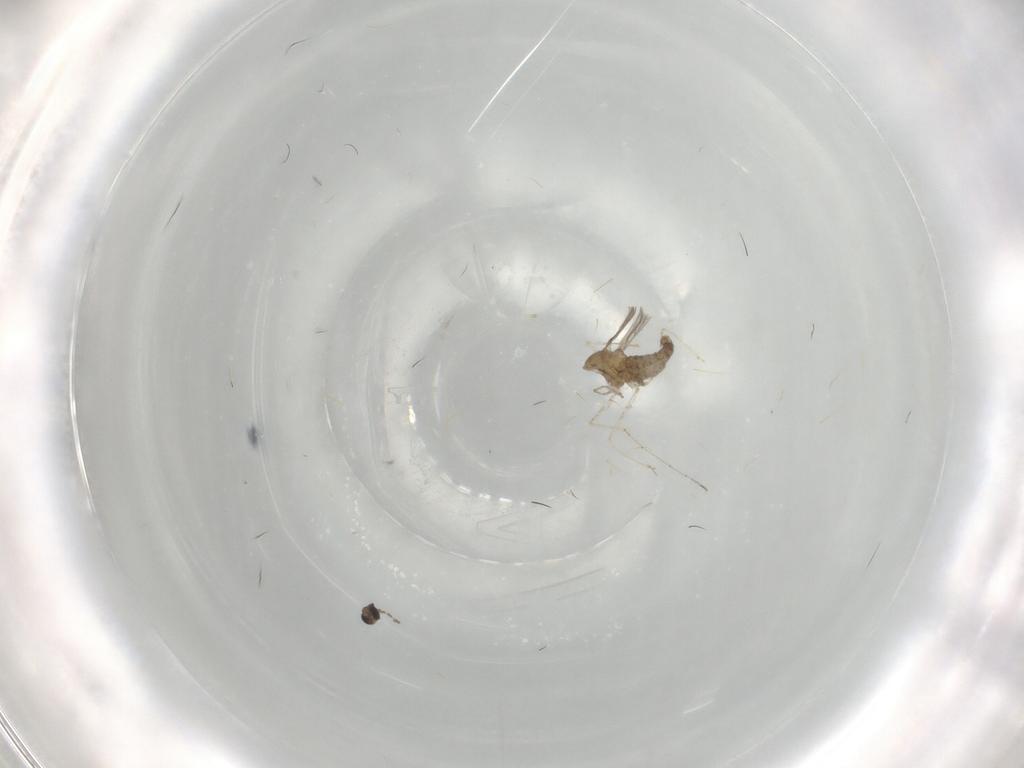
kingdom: Animalia
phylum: Arthropoda
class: Insecta
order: Diptera
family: Cecidomyiidae
